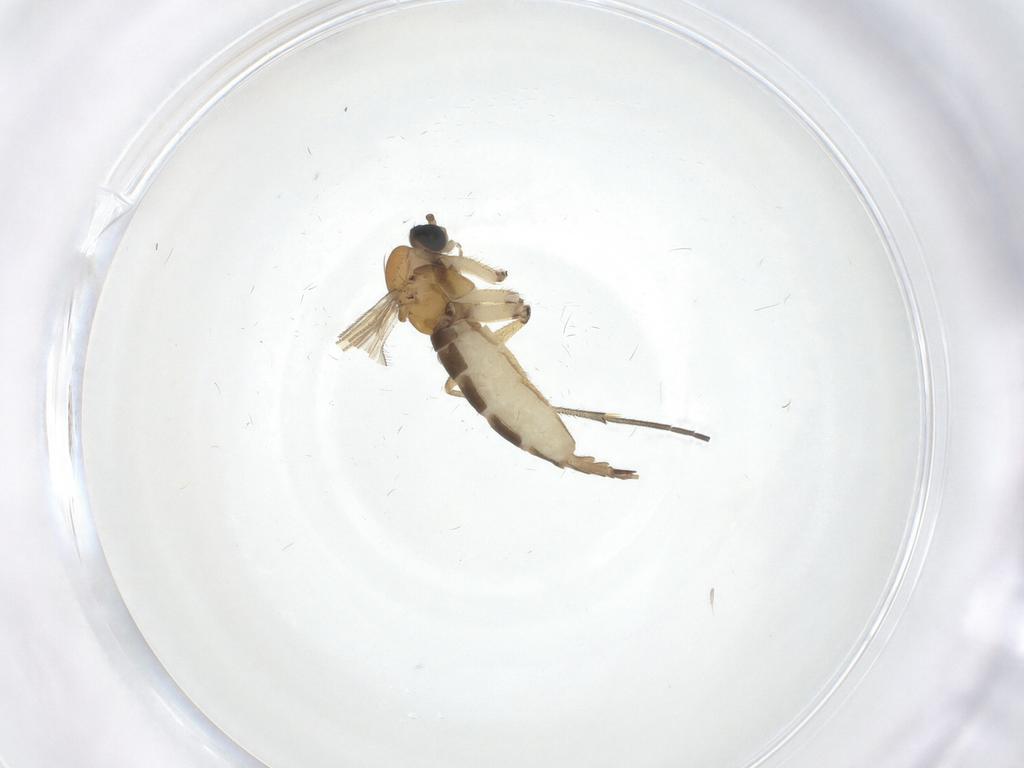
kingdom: Animalia
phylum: Arthropoda
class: Insecta
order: Diptera
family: Sciaridae
